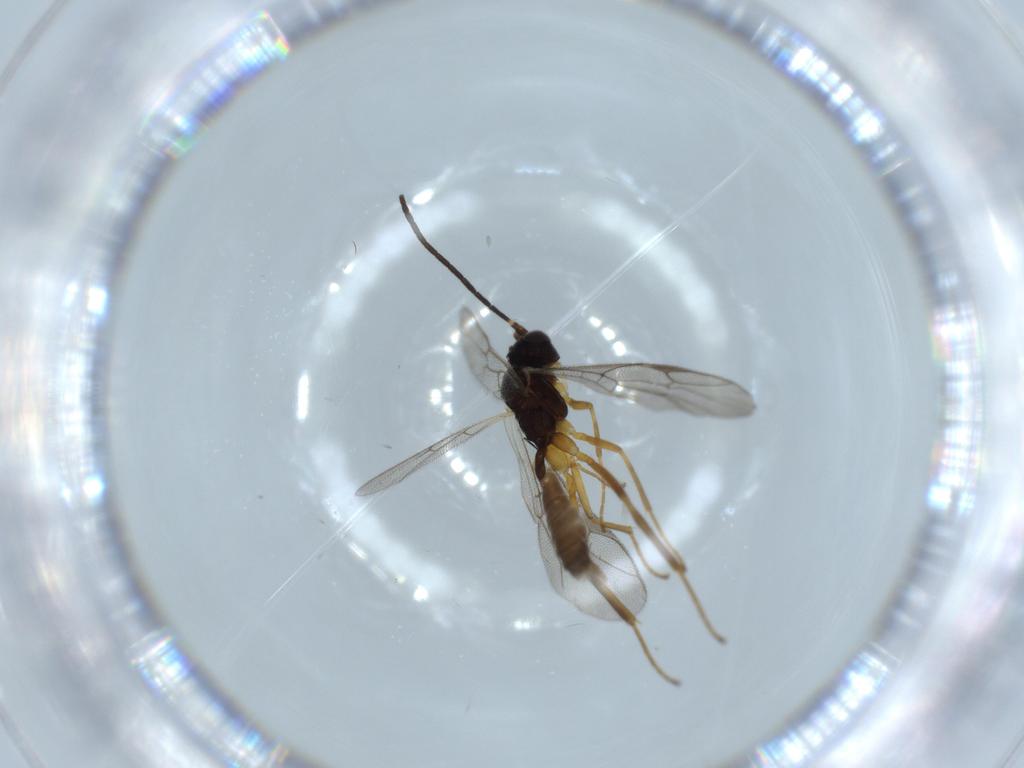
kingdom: Animalia
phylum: Arthropoda
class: Insecta
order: Hymenoptera
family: Ichneumonidae
